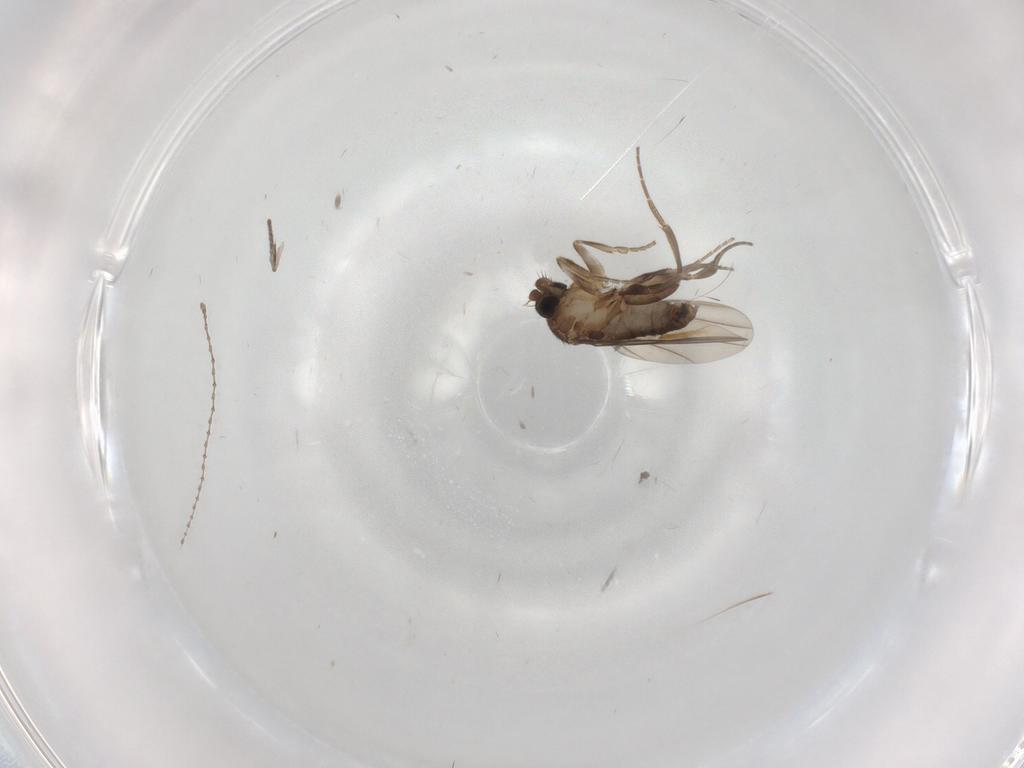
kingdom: Animalia
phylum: Arthropoda
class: Insecta
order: Diptera
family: Psychodidae
